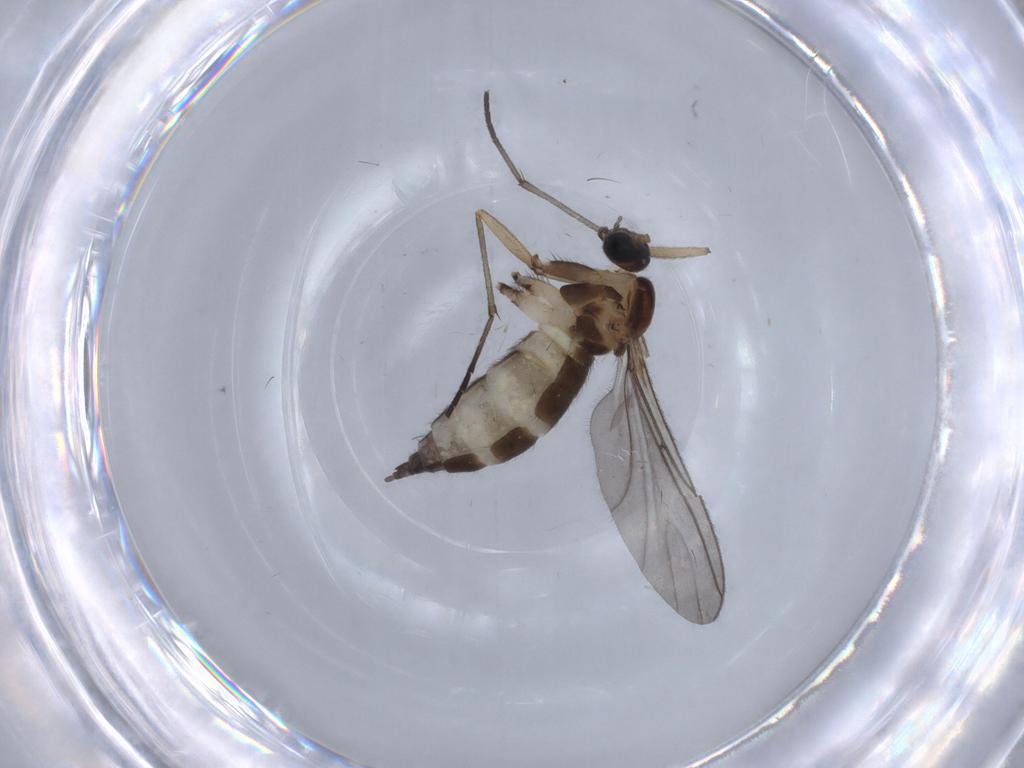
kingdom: Animalia
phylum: Arthropoda
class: Insecta
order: Diptera
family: Sciaridae
